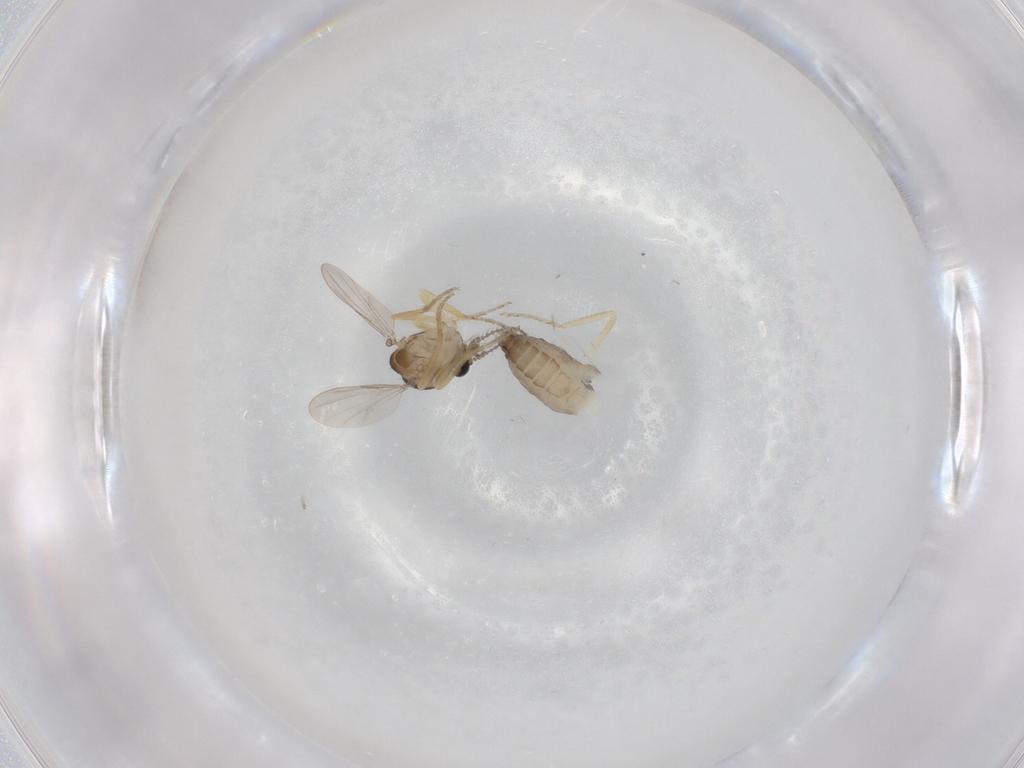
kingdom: Animalia
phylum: Arthropoda
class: Insecta
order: Diptera
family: Ceratopogonidae
